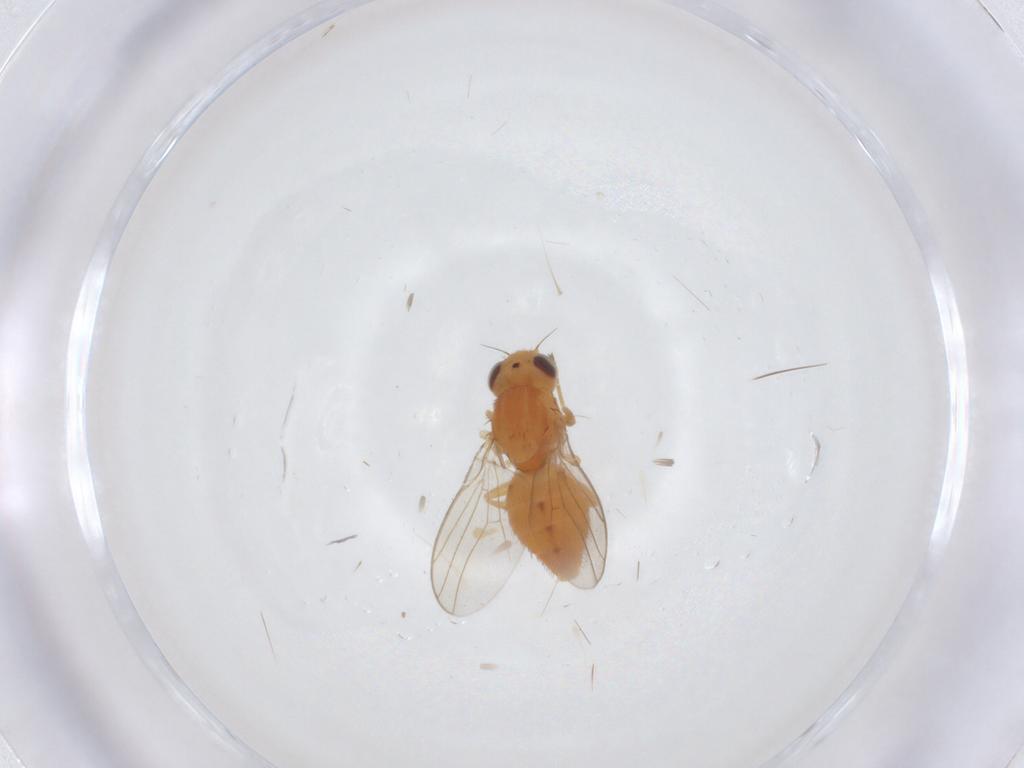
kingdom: Animalia
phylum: Arthropoda
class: Insecta
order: Diptera
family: Chloropidae
